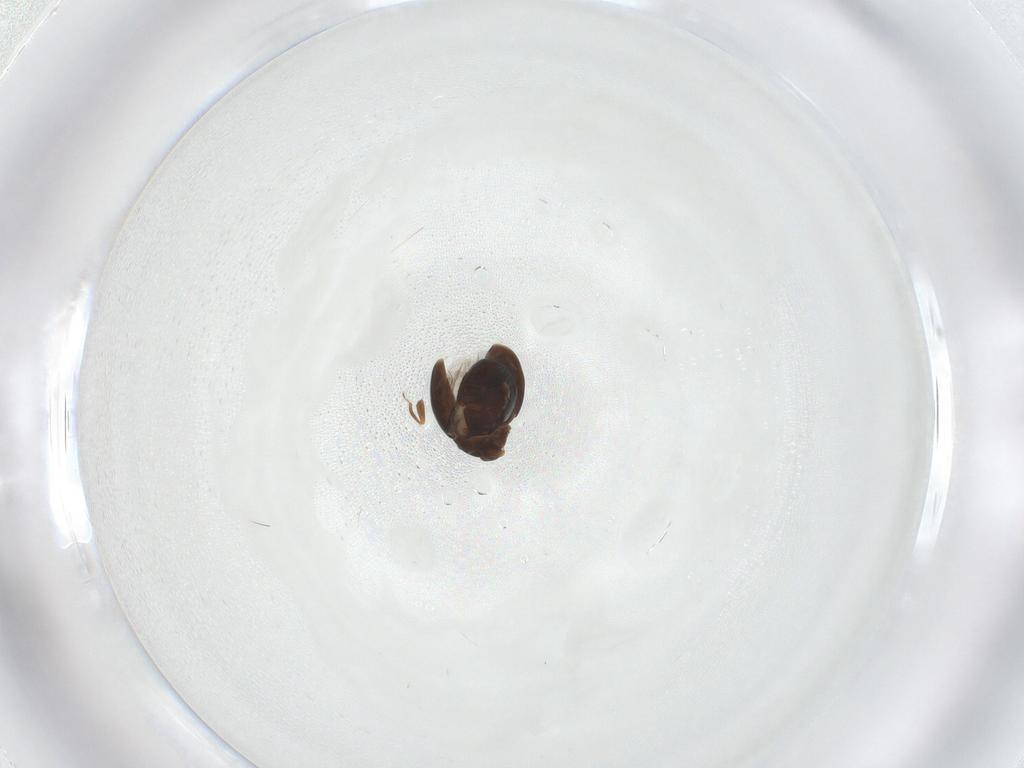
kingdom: Animalia
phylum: Arthropoda
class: Insecta
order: Coleoptera
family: Corylophidae
